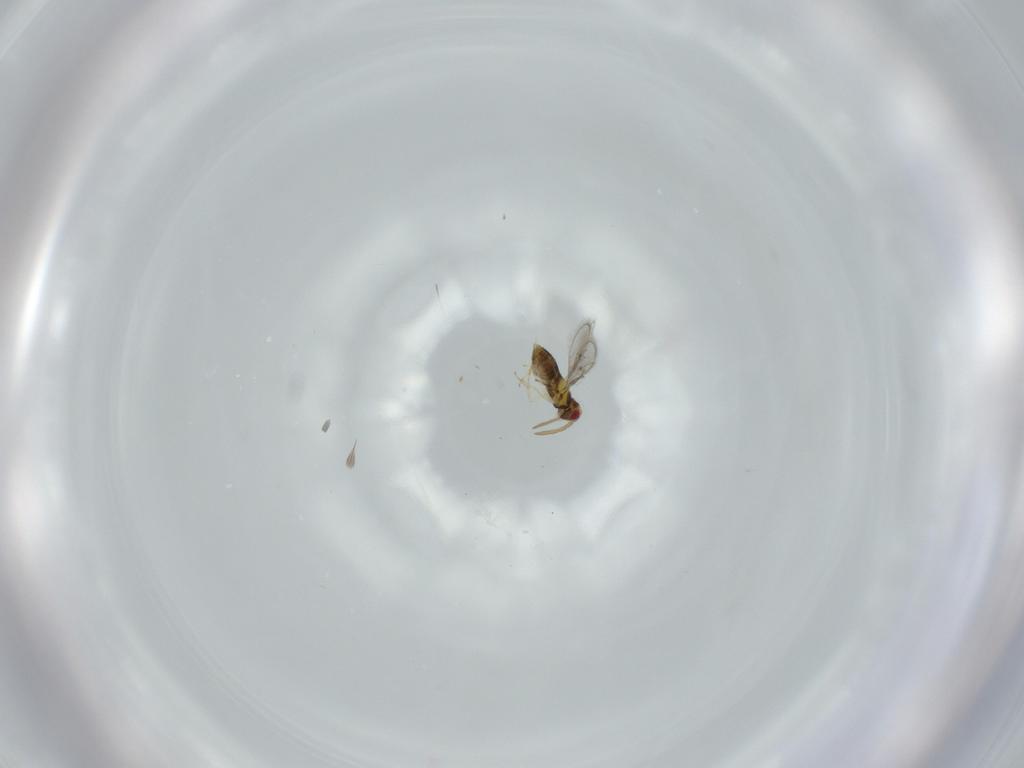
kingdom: Animalia
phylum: Arthropoda
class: Insecta
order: Hymenoptera
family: Aphelinidae
